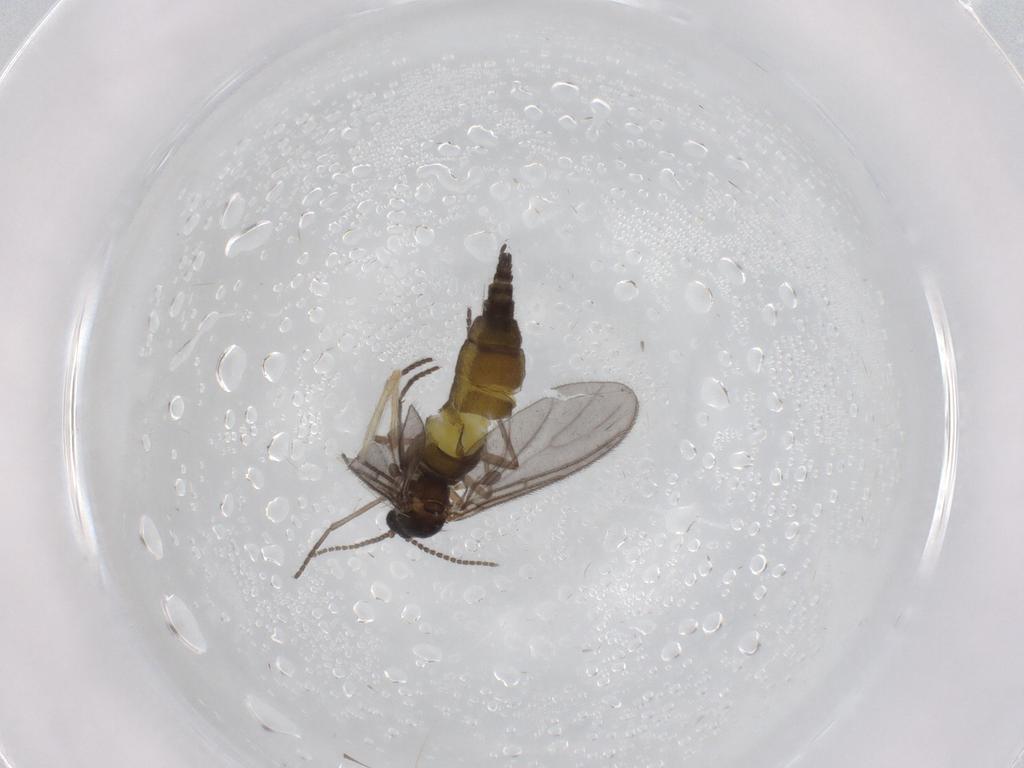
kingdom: Animalia
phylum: Arthropoda
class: Insecta
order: Diptera
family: Sciaridae
